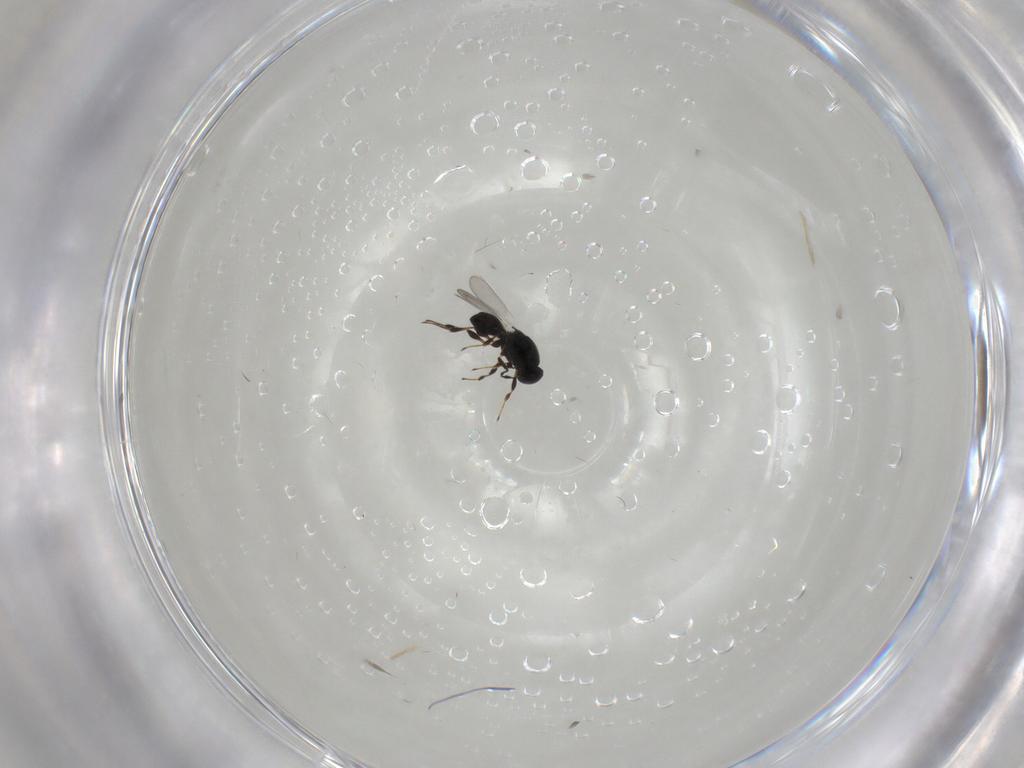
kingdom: Animalia
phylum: Arthropoda
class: Insecta
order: Hymenoptera
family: Platygastridae
